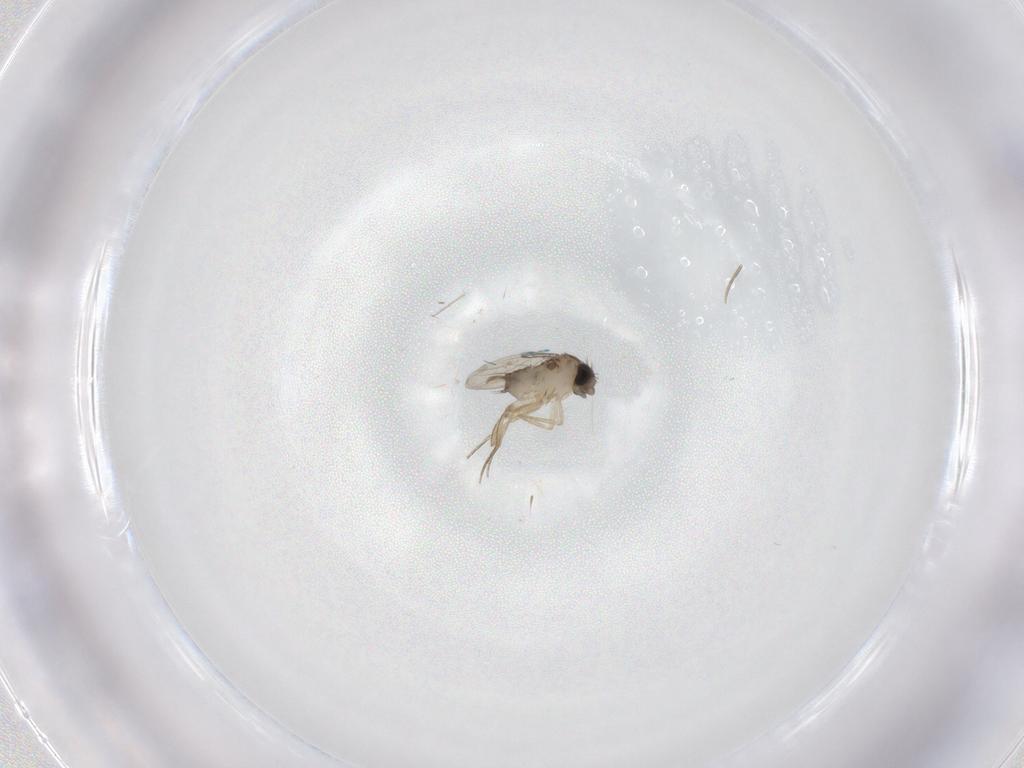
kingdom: Animalia
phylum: Arthropoda
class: Insecta
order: Diptera
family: Phoridae
